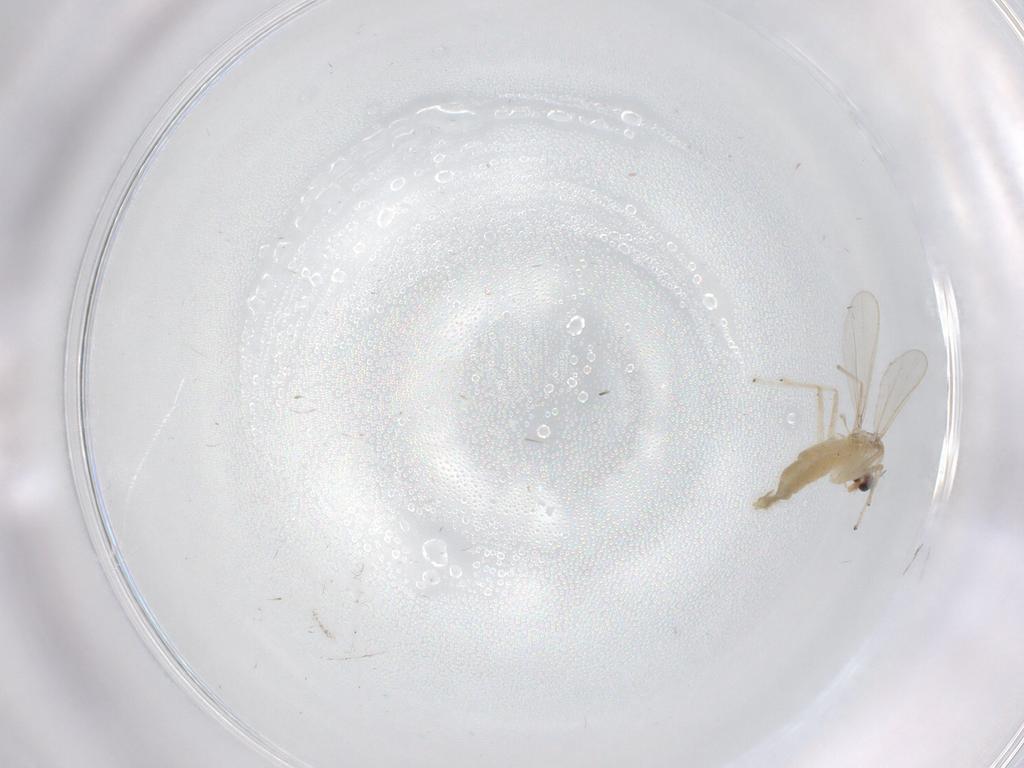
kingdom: Animalia
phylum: Arthropoda
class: Insecta
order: Diptera
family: Chironomidae
